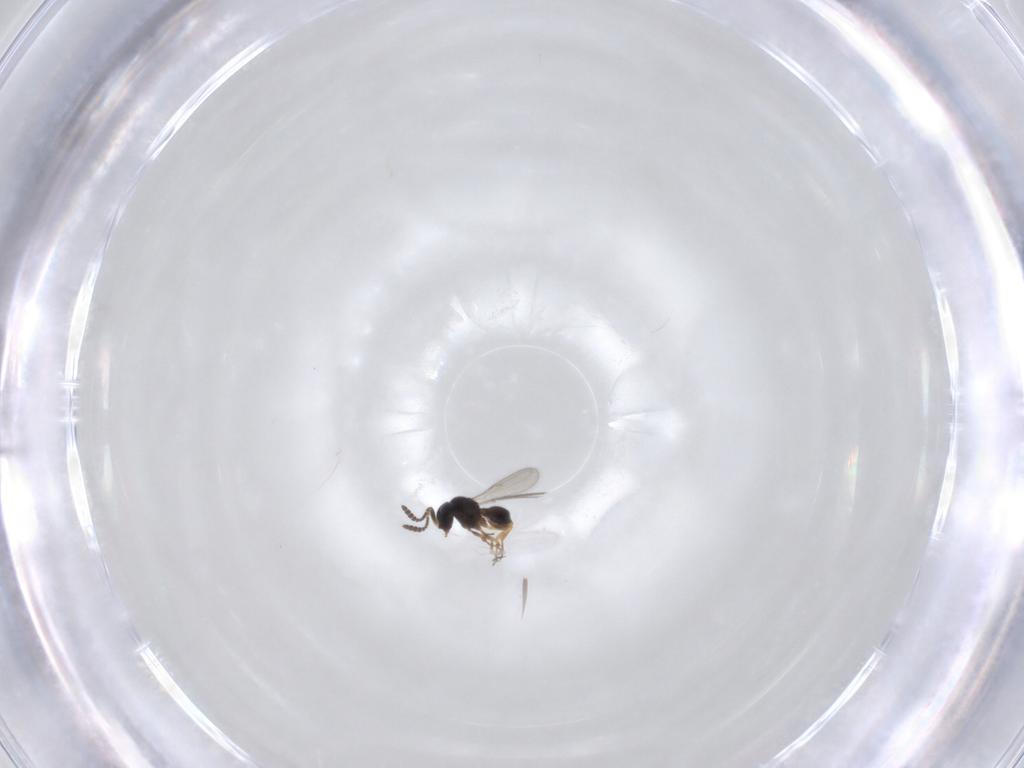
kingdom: Animalia
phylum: Arthropoda
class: Insecta
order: Hymenoptera
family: Scelionidae
